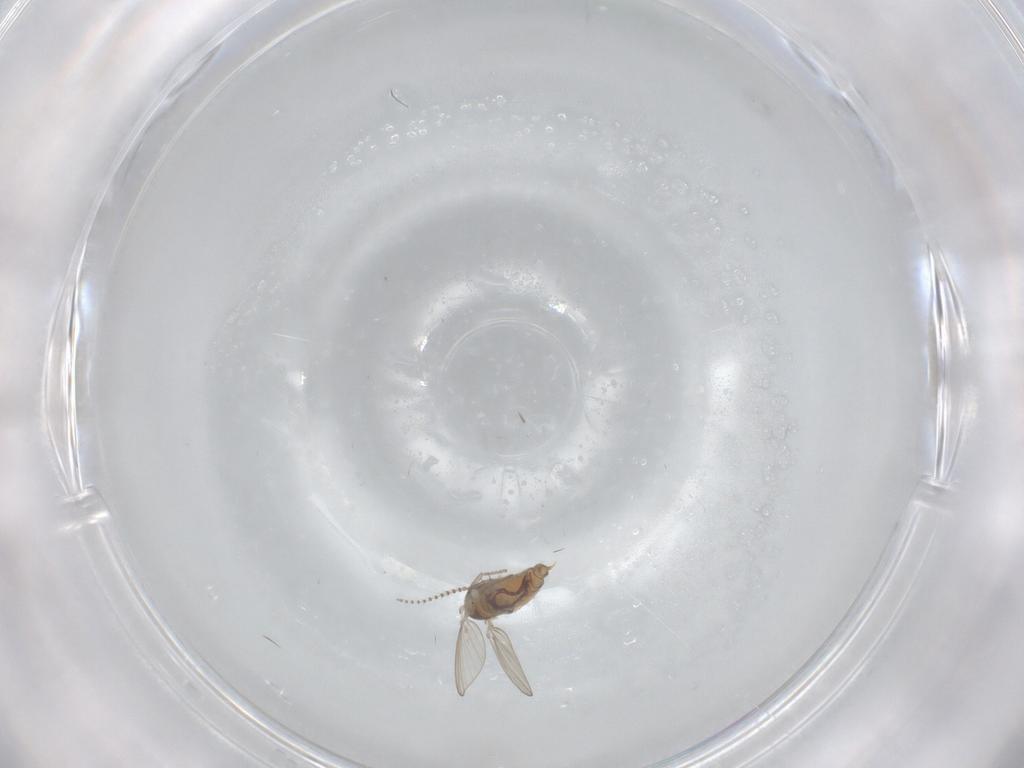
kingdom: Animalia
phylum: Arthropoda
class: Insecta
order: Diptera
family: Psychodidae
